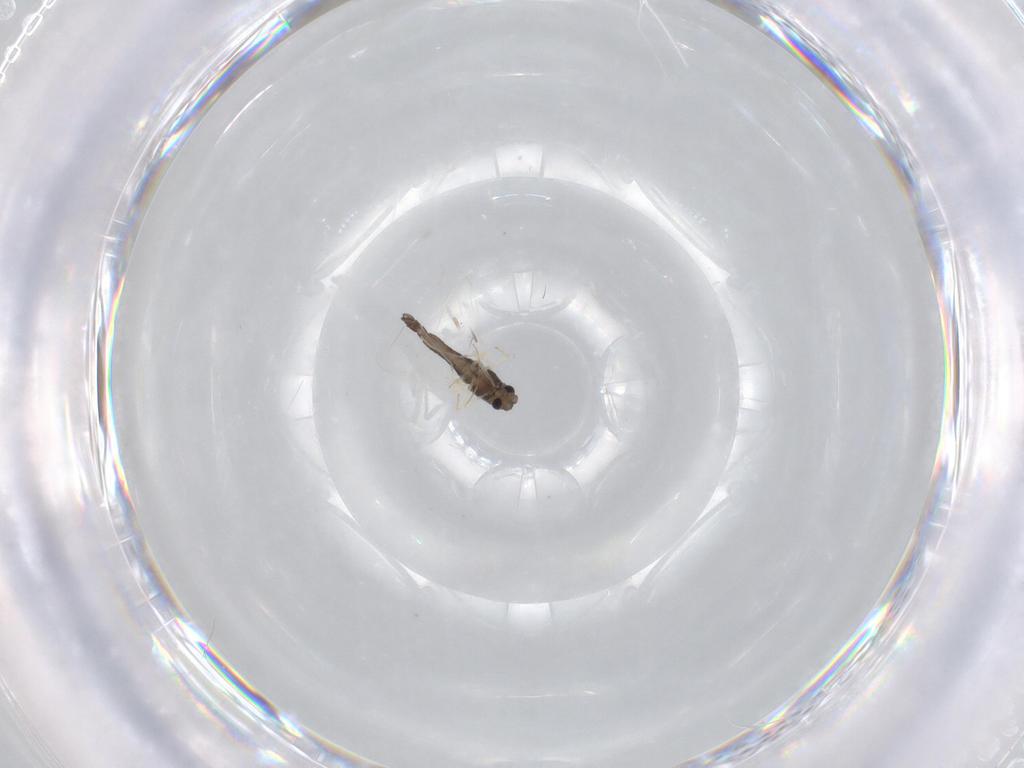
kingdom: Animalia
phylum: Arthropoda
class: Insecta
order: Diptera
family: Chironomidae
